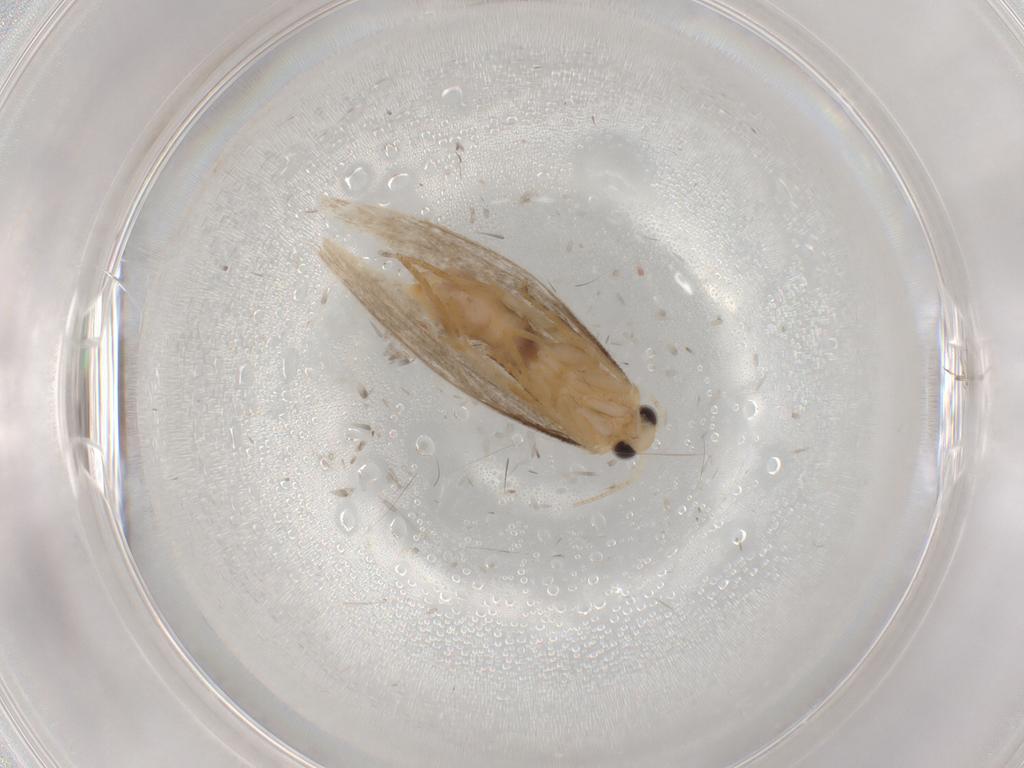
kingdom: Animalia
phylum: Arthropoda
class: Insecta
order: Lepidoptera
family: Dryadaulidae
